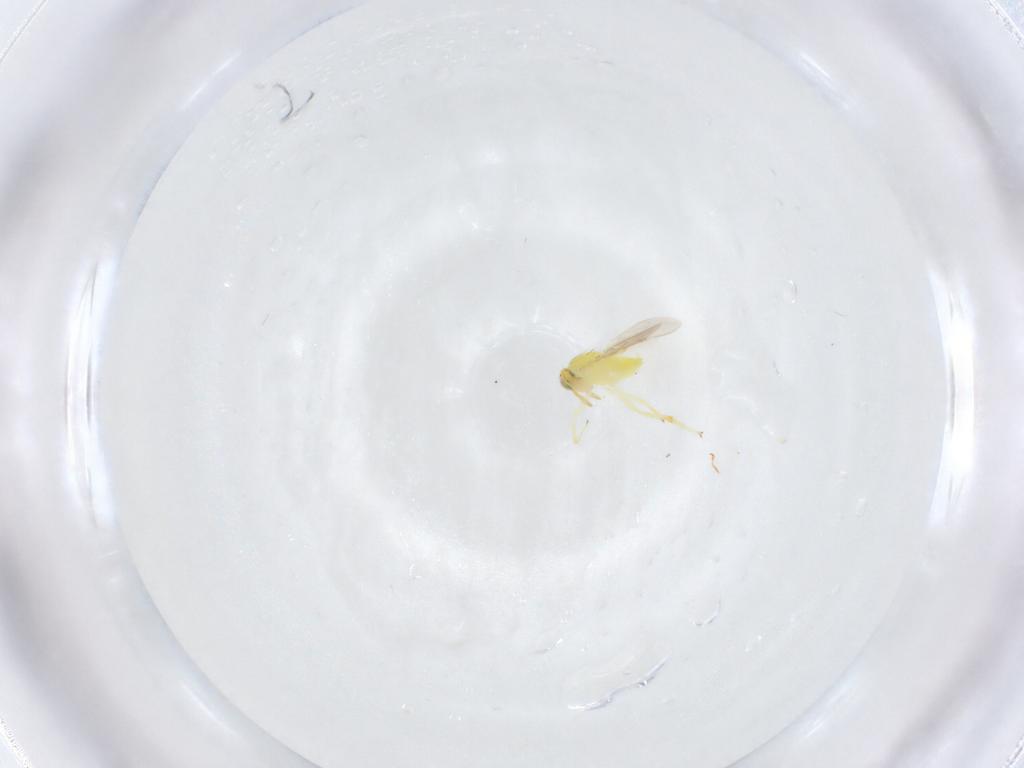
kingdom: Animalia
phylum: Arthropoda
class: Insecta
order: Hymenoptera
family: Aphelinidae
